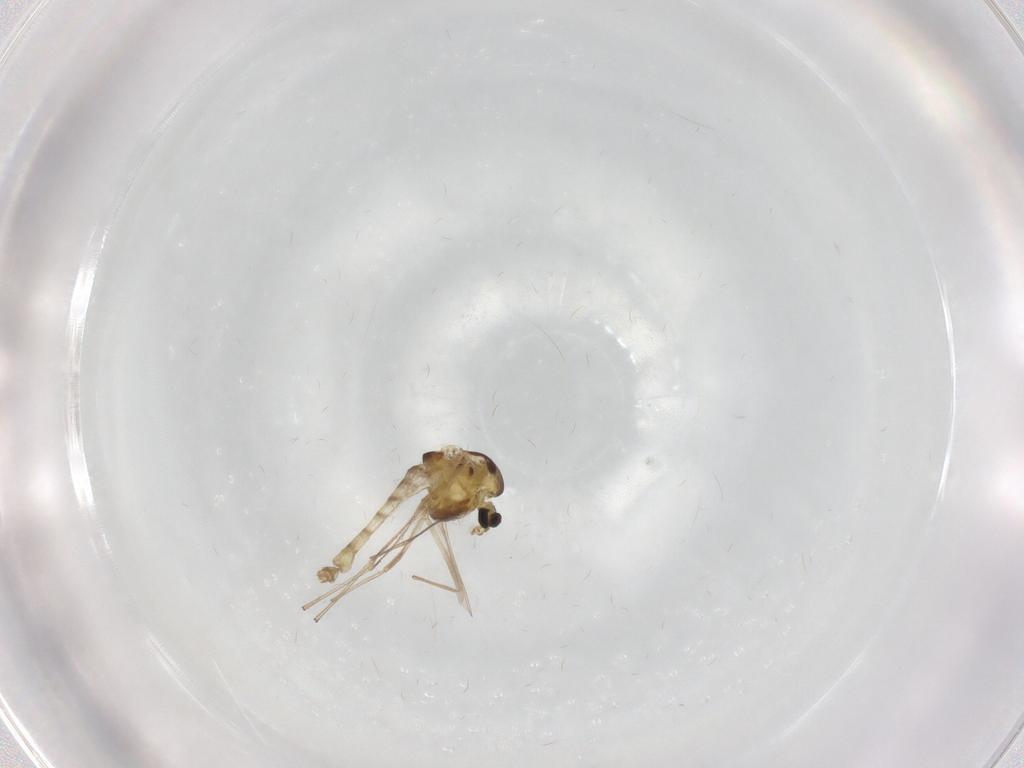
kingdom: Animalia
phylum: Arthropoda
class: Insecta
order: Diptera
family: Chironomidae
